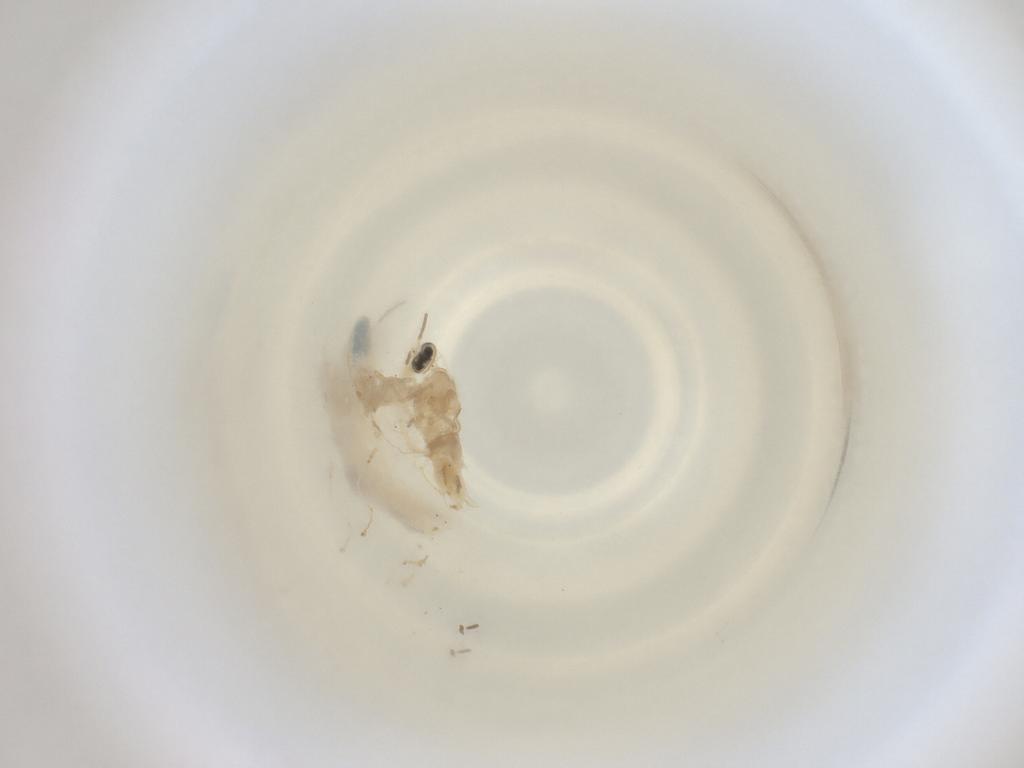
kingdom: Animalia
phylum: Arthropoda
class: Insecta
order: Diptera
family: Cecidomyiidae
